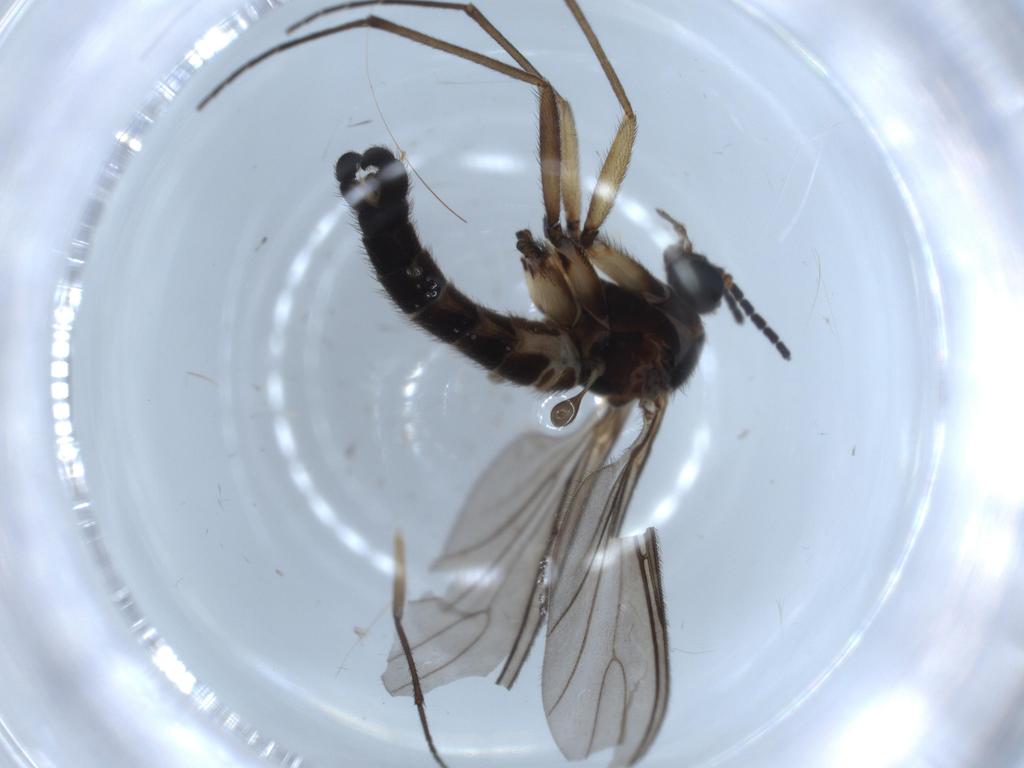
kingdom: Animalia
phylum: Arthropoda
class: Insecta
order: Diptera
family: Sciaridae
